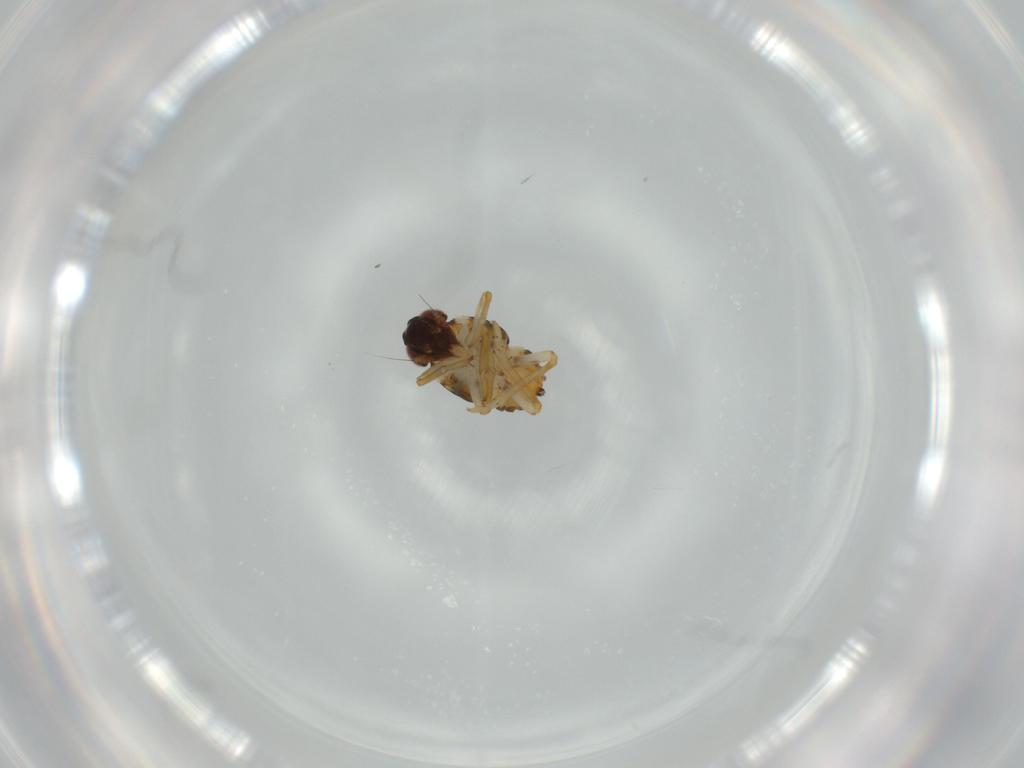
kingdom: Animalia
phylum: Arthropoda
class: Insecta
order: Hemiptera
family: Issidae
